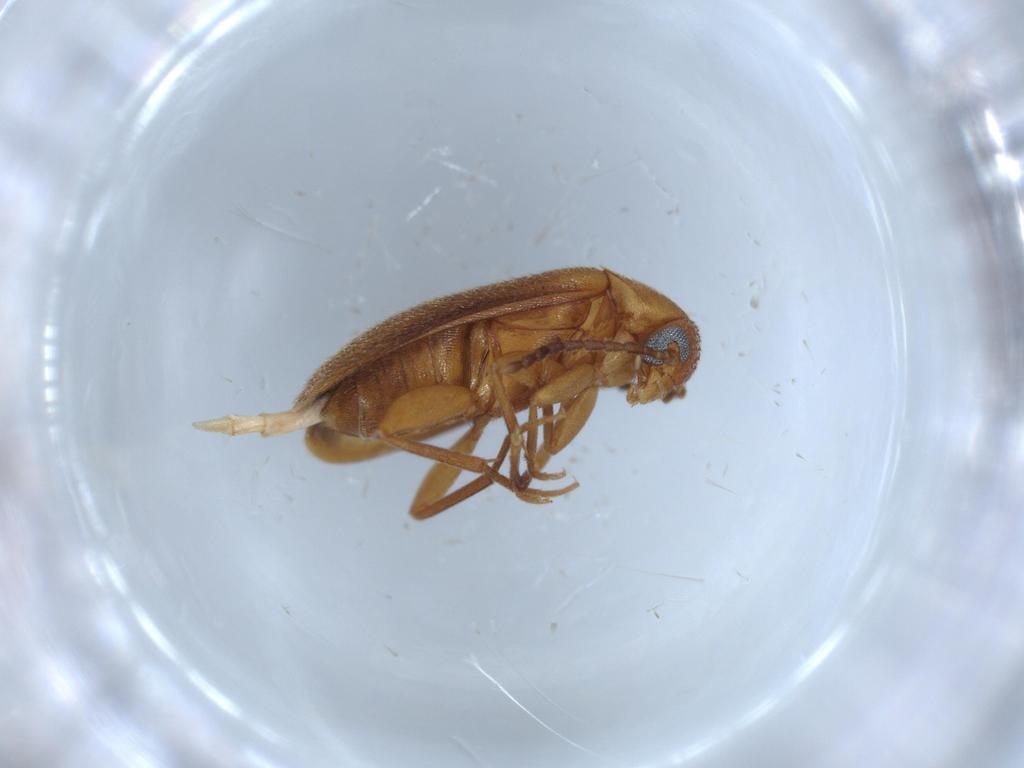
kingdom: Animalia
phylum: Arthropoda
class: Insecta
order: Coleoptera
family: Scraptiidae
